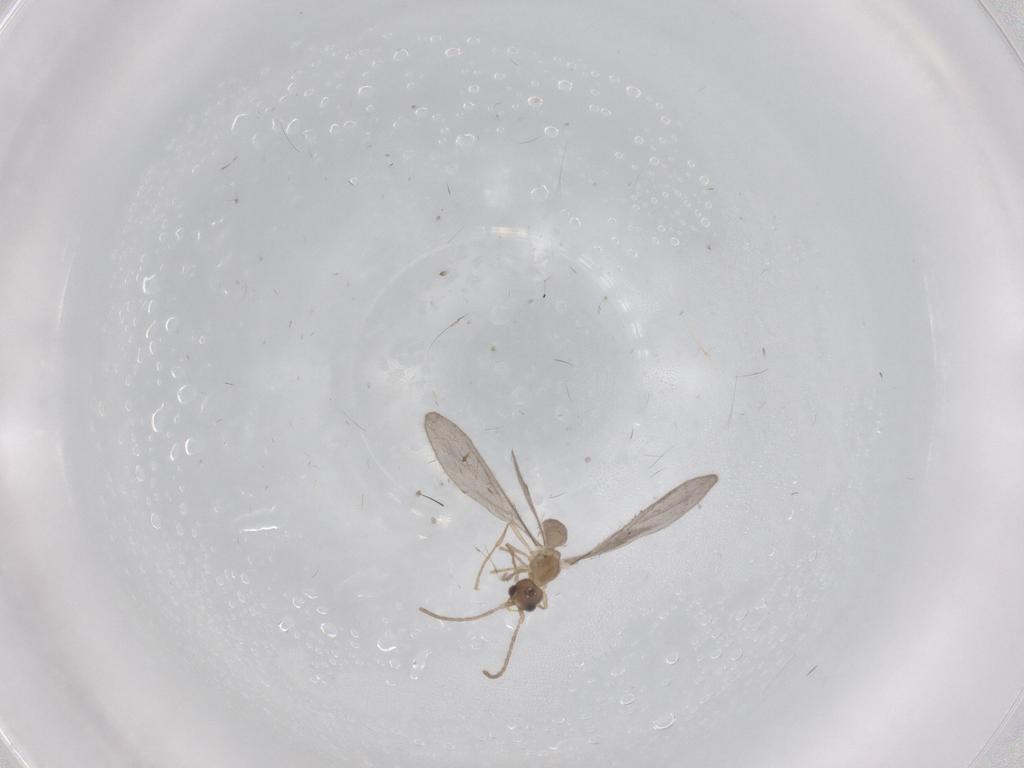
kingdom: Animalia
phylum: Arthropoda
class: Insecta
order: Hymenoptera
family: Formicidae
